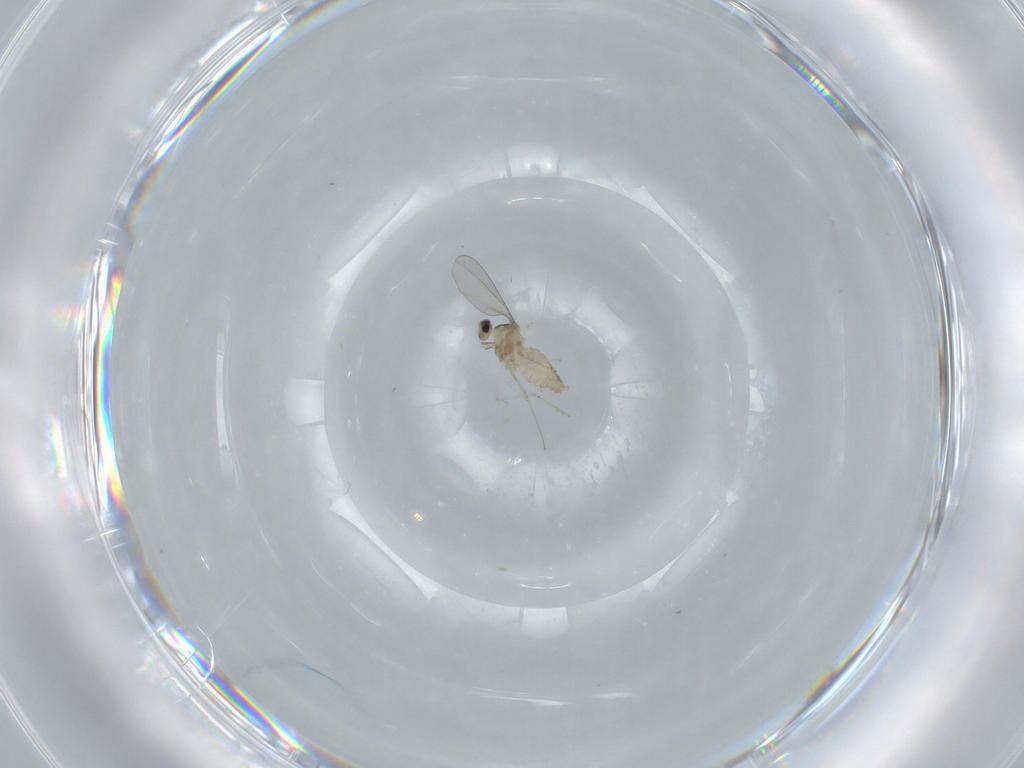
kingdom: Animalia
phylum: Arthropoda
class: Insecta
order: Diptera
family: Cecidomyiidae
